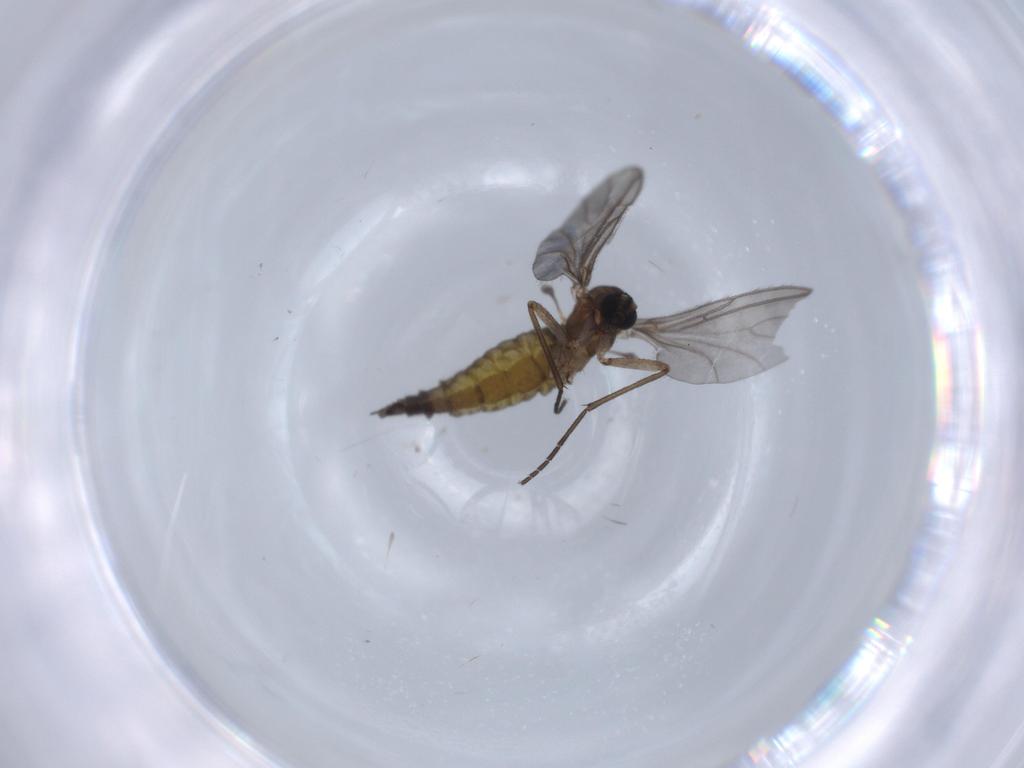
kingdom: Animalia
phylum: Arthropoda
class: Insecta
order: Diptera
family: Sciaridae
